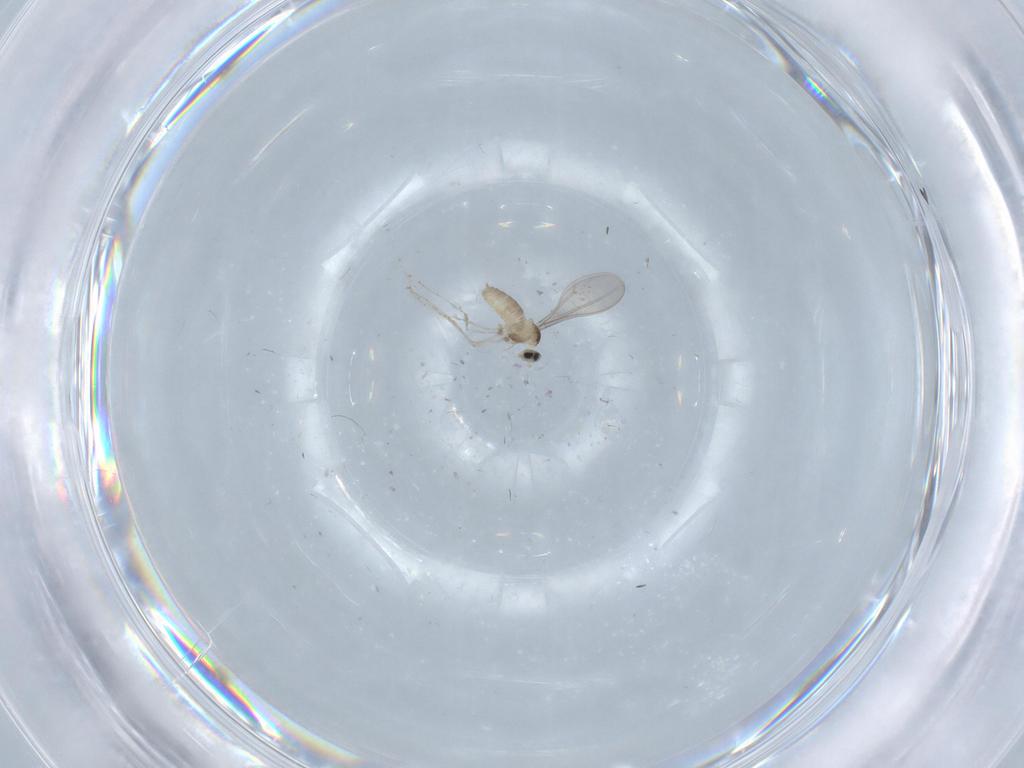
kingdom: Animalia
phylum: Arthropoda
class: Insecta
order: Diptera
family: Cecidomyiidae
